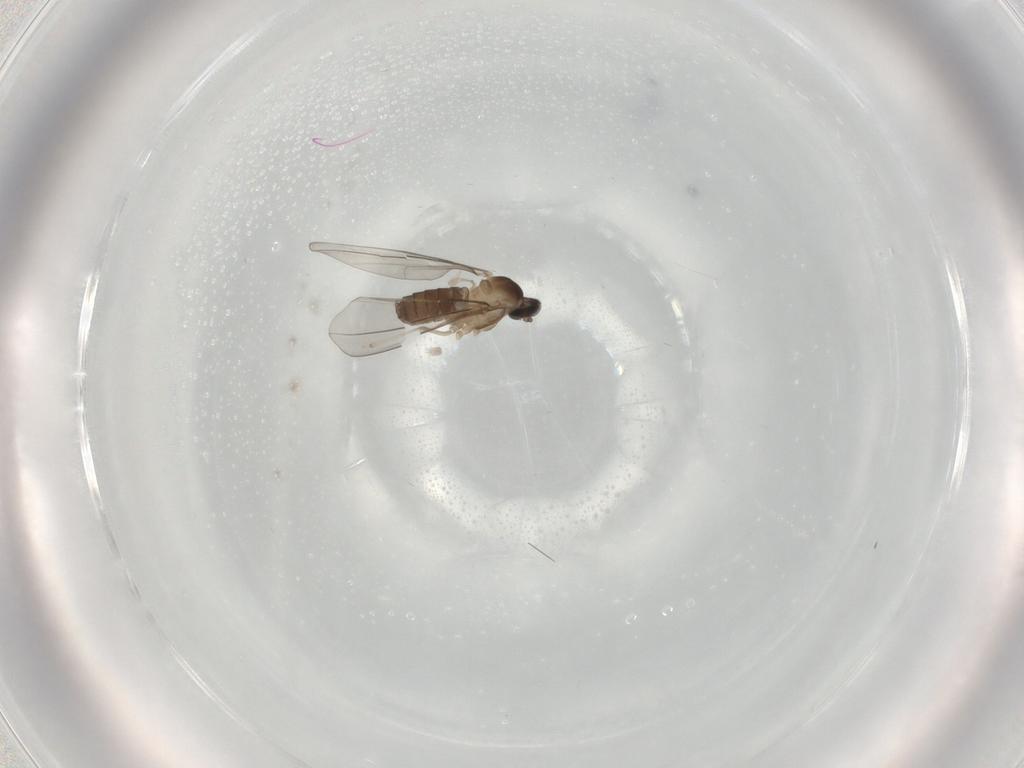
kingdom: Animalia
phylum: Arthropoda
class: Insecta
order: Diptera
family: Cecidomyiidae
